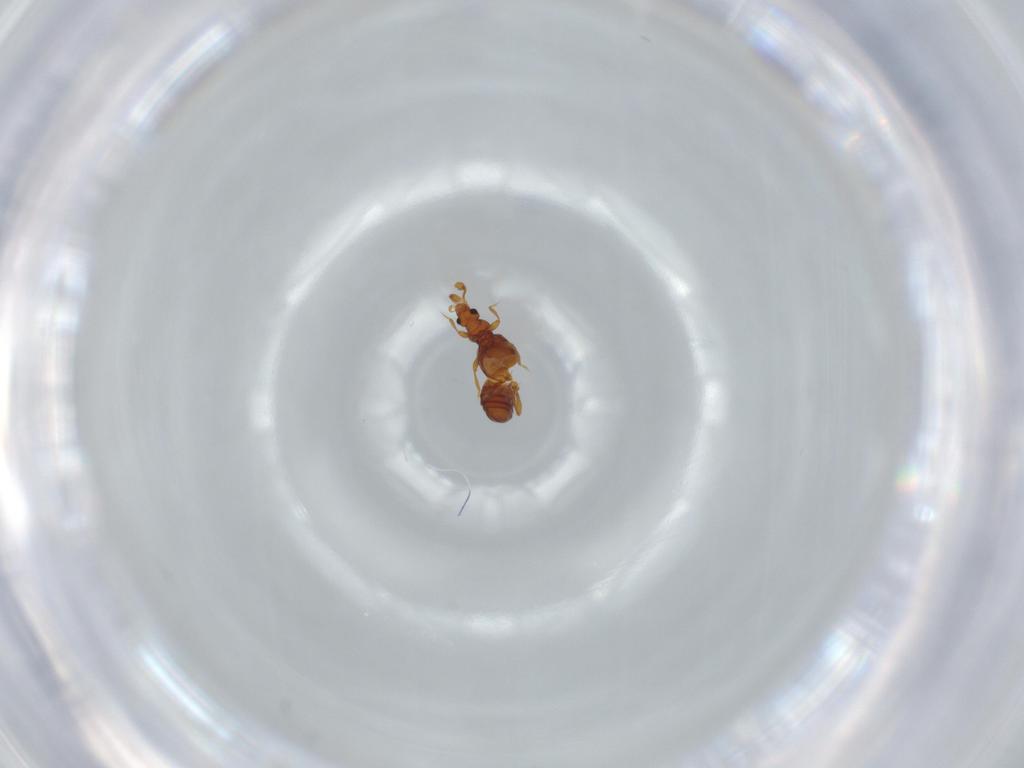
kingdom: Animalia
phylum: Arthropoda
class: Insecta
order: Coleoptera
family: Staphylinidae
